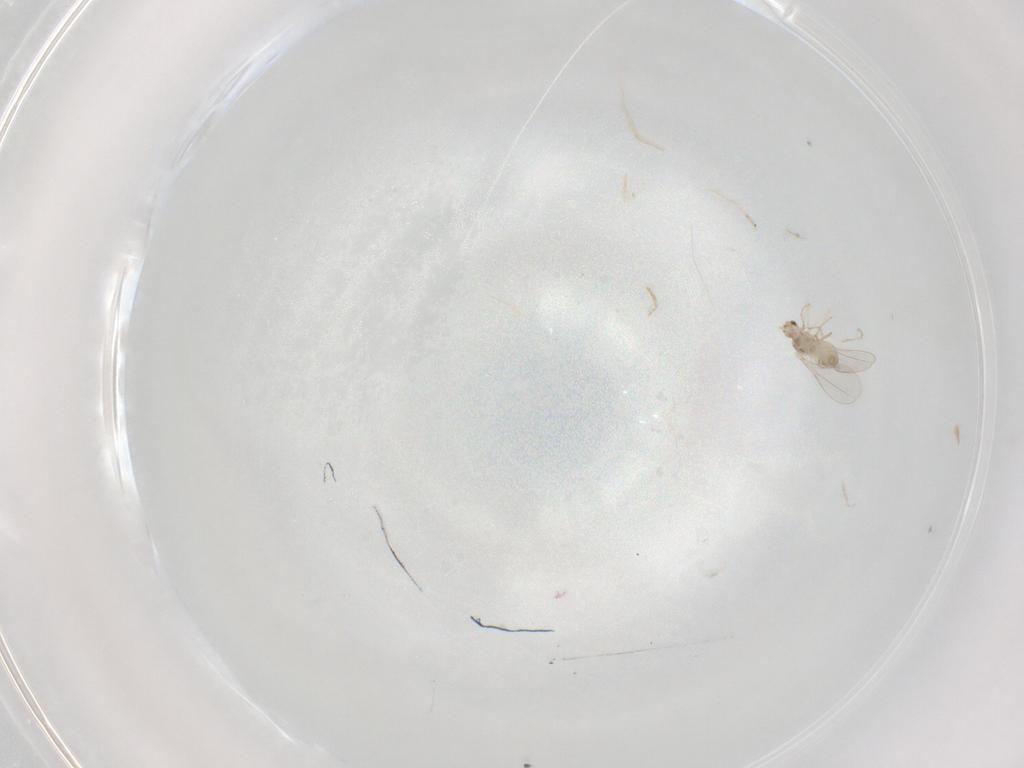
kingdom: Animalia
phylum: Arthropoda
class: Insecta
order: Diptera
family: Cecidomyiidae
